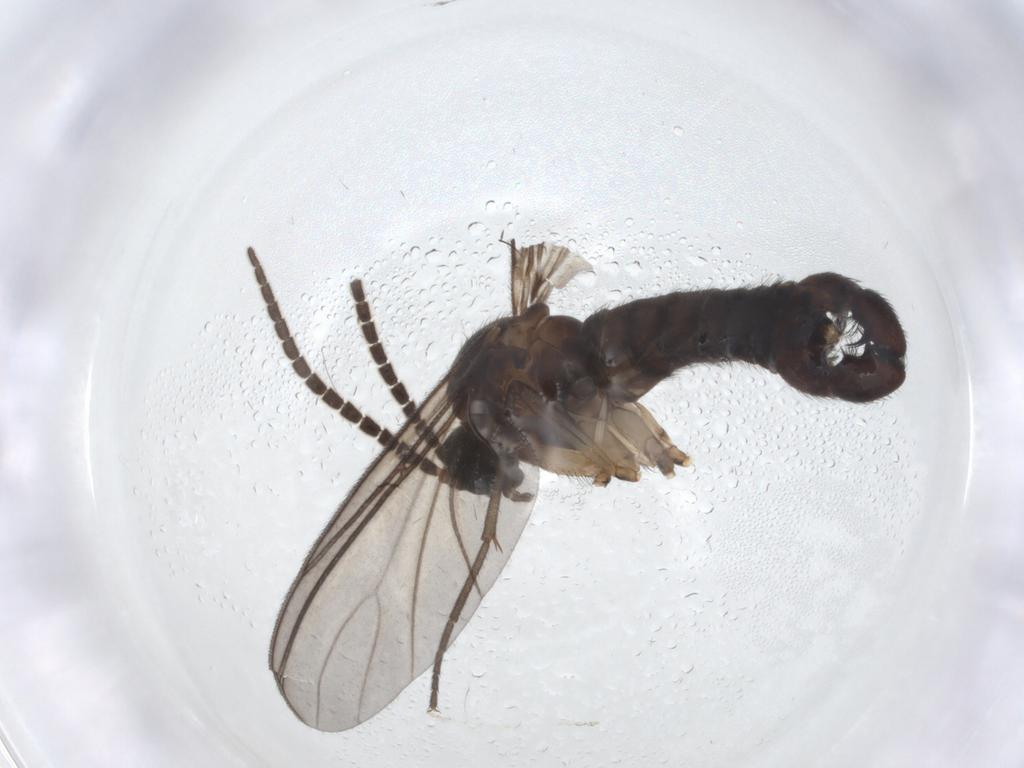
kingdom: Animalia
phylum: Arthropoda
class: Insecta
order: Diptera
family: Sciaridae
